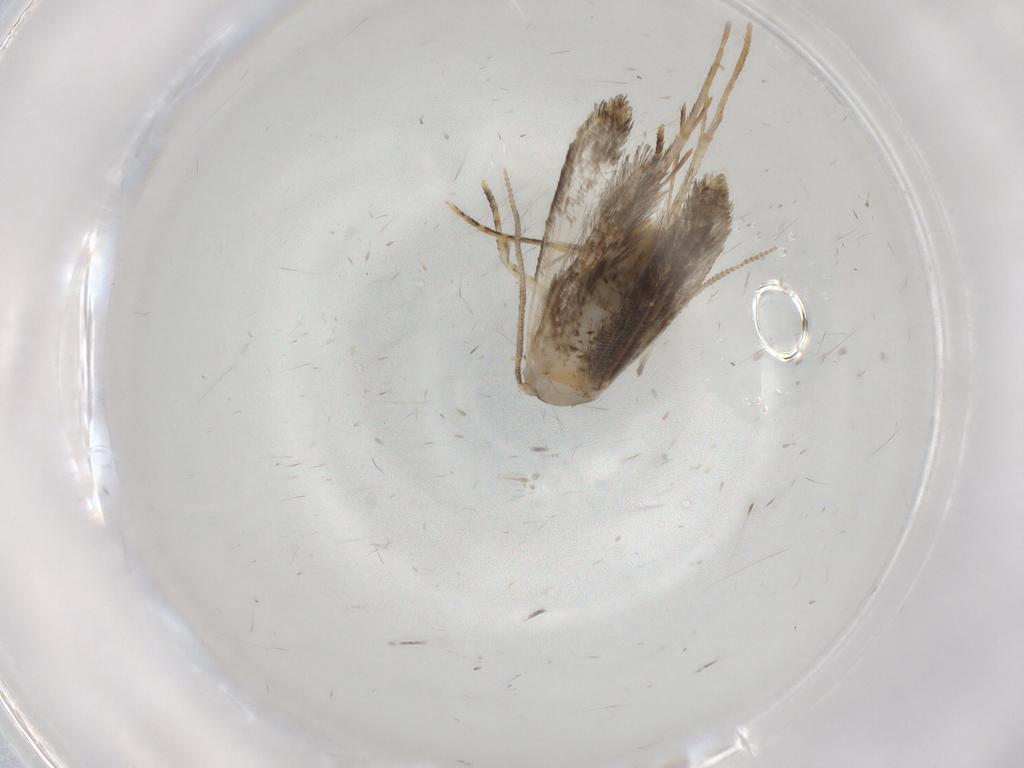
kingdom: Animalia
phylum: Arthropoda
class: Insecta
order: Lepidoptera
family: Tineidae
